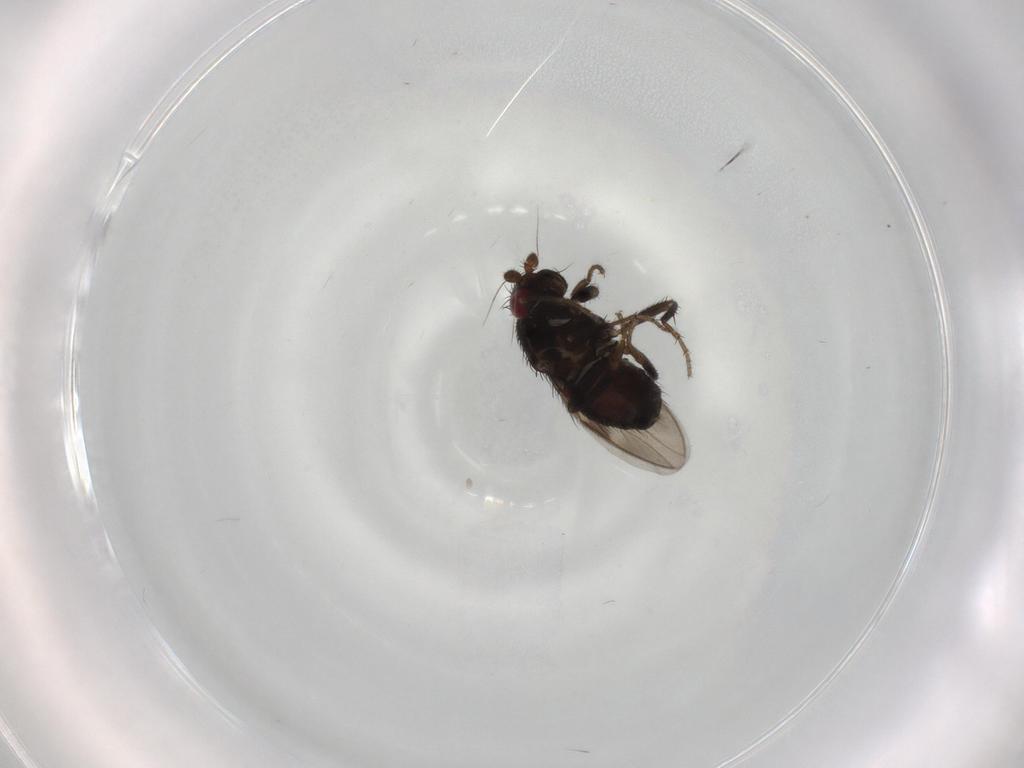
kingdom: Animalia
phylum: Arthropoda
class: Insecta
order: Diptera
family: Sphaeroceridae
